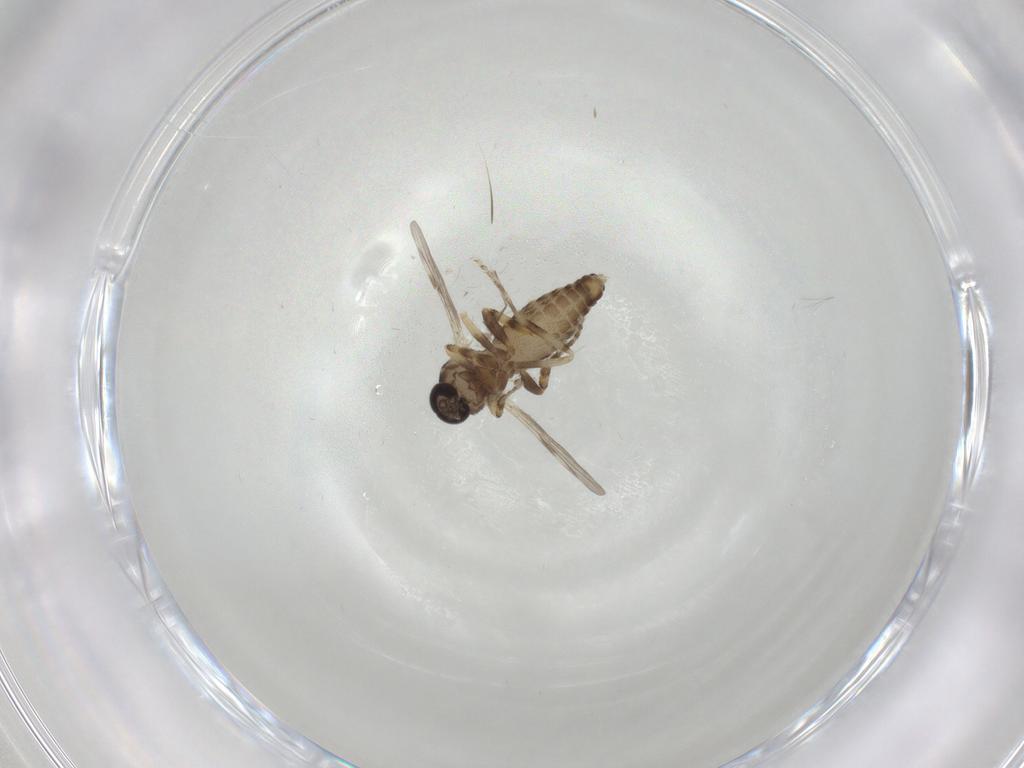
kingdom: Animalia
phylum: Arthropoda
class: Insecta
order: Diptera
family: Ceratopogonidae
